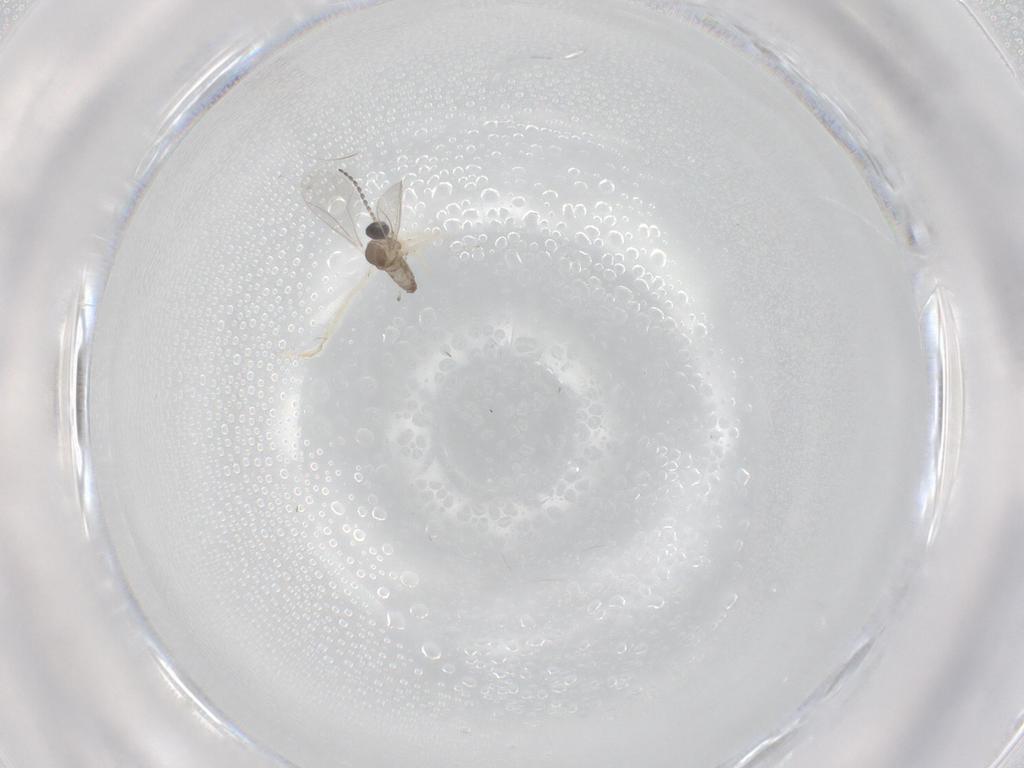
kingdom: Animalia
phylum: Arthropoda
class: Insecta
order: Diptera
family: Cecidomyiidae
